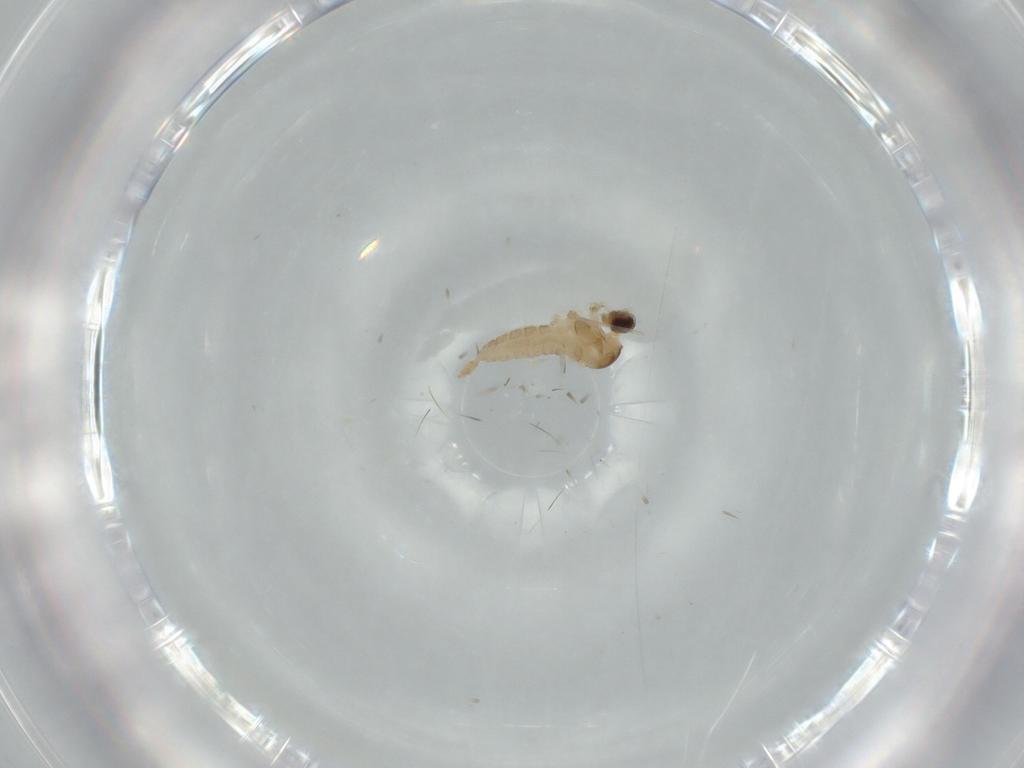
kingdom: Animalia
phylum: Arthropoda
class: Insecta
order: Diptera
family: Cecidomyiidae
